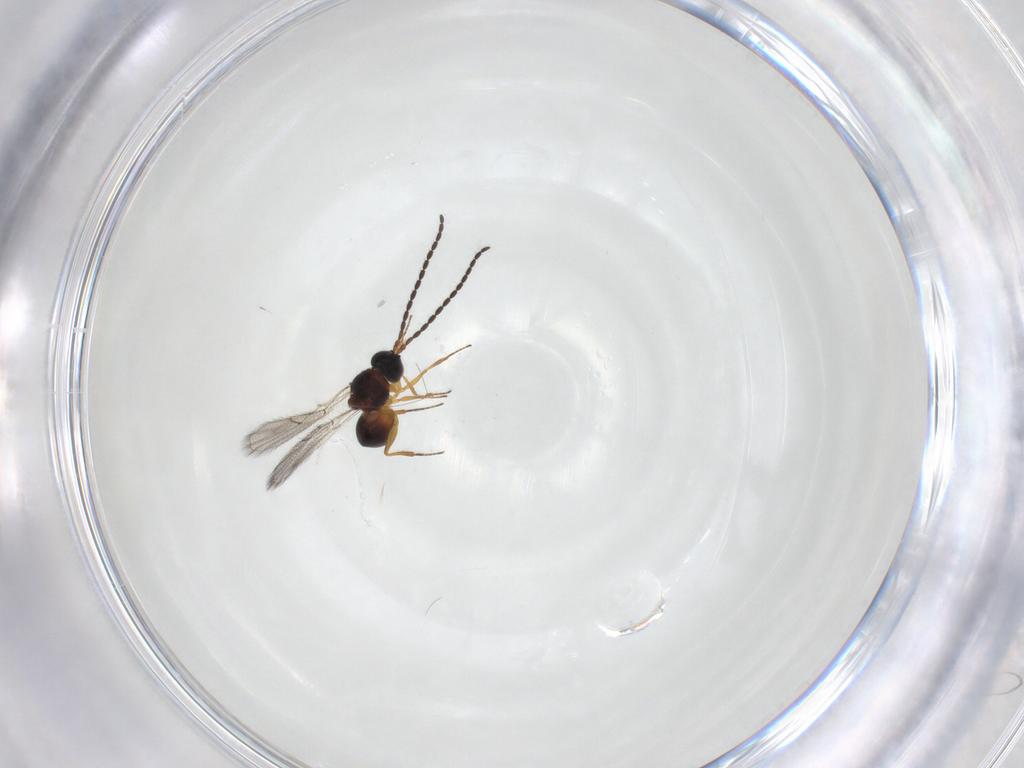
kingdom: Animalia
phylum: Arthropoda
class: Insecta
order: Hymenoptera
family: Figitidae
